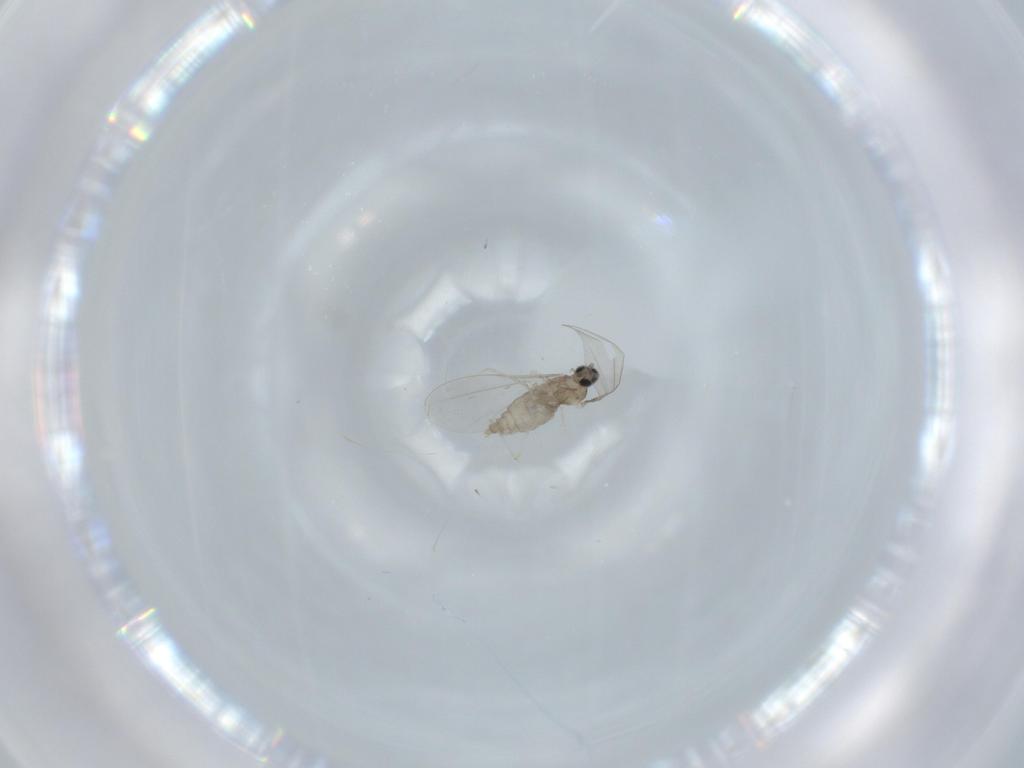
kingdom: Animalia
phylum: Arthropoda
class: Insecta
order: Diptera
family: Cecidomyiidae
